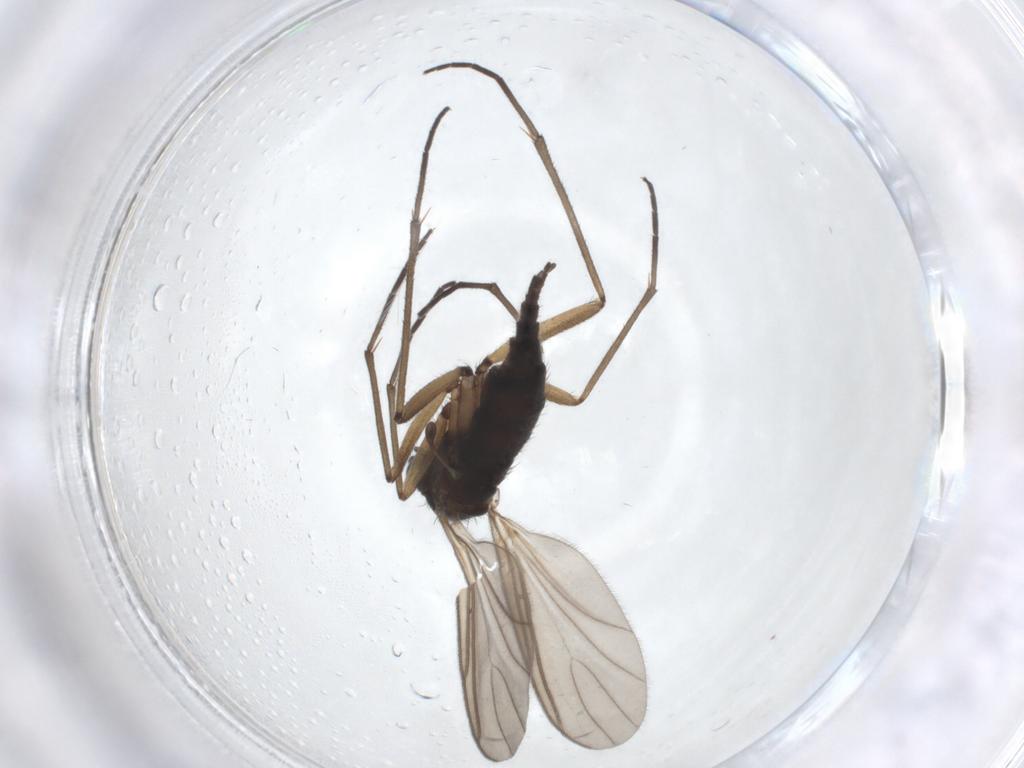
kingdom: Animalia
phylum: Arthropoda
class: Insecta
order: Diptera
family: Sciaridae
